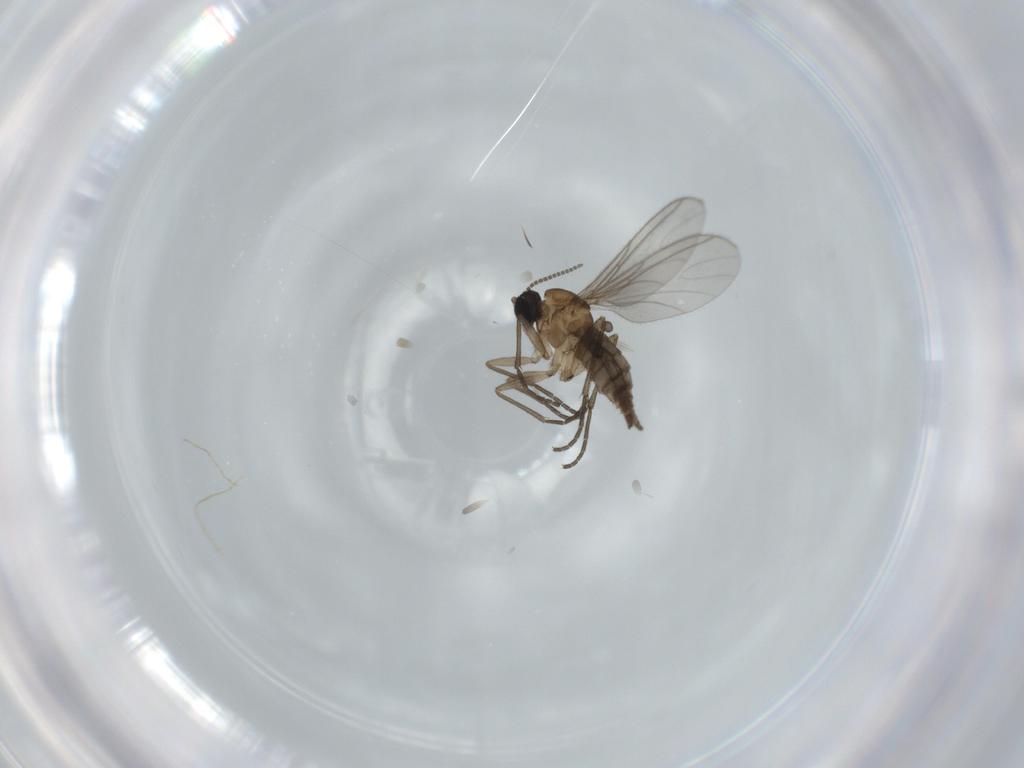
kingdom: Animalia
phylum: Arthropoda
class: Insecta
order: Diptera
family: Sciaridae
